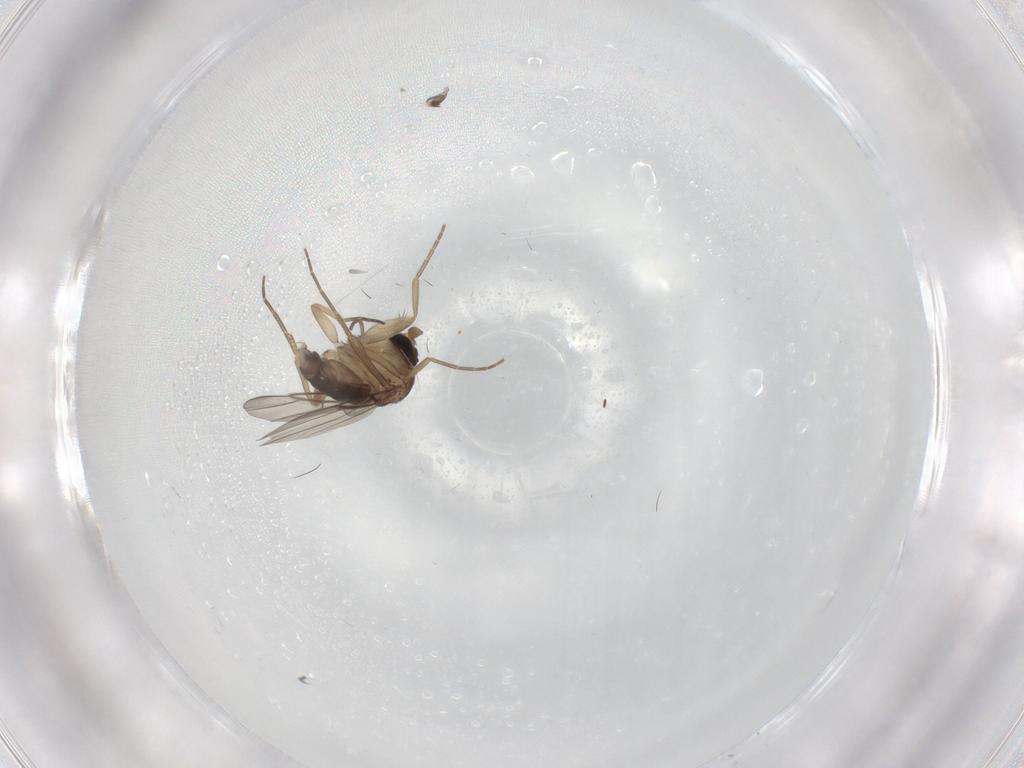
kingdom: Animalia
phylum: Arthropoda
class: Insecta
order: Diptera
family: Phoridae
